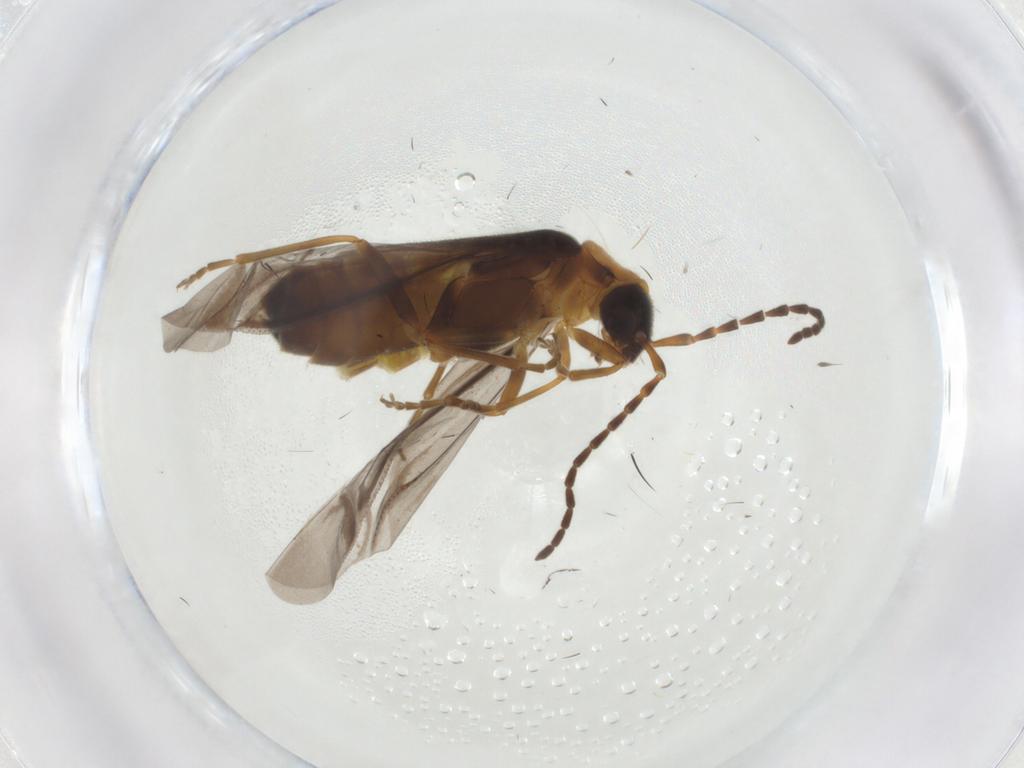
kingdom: Animalia
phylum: Arthropoda
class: Insecta
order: Coleoptera
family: Cantharidae
